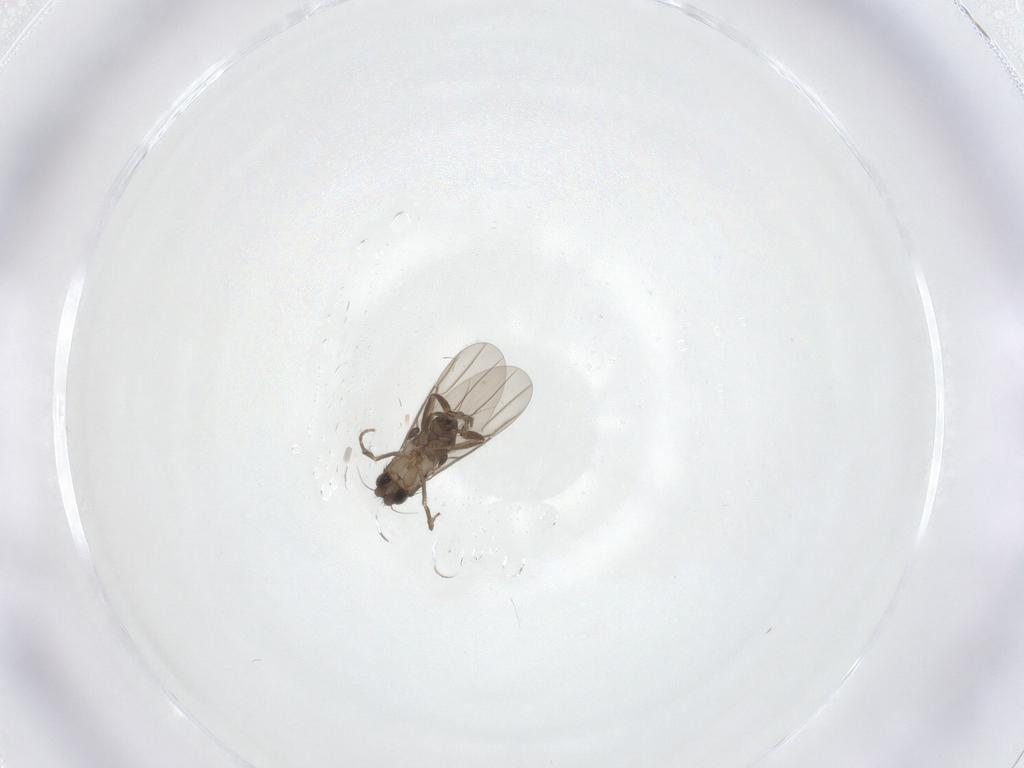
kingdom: Animalia
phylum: Arthropoda
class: Insecta
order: Diptera
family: Phoridae
